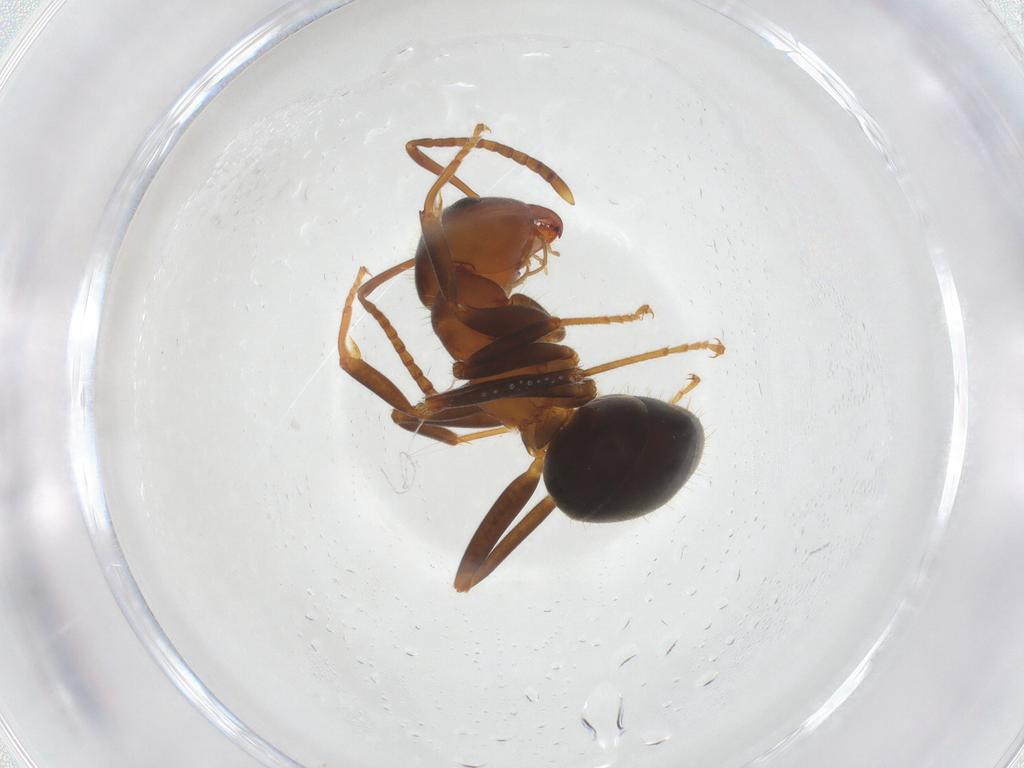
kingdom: Animalia
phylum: Arthropoda
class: Insecta
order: Hymenoptera
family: Formicidae
